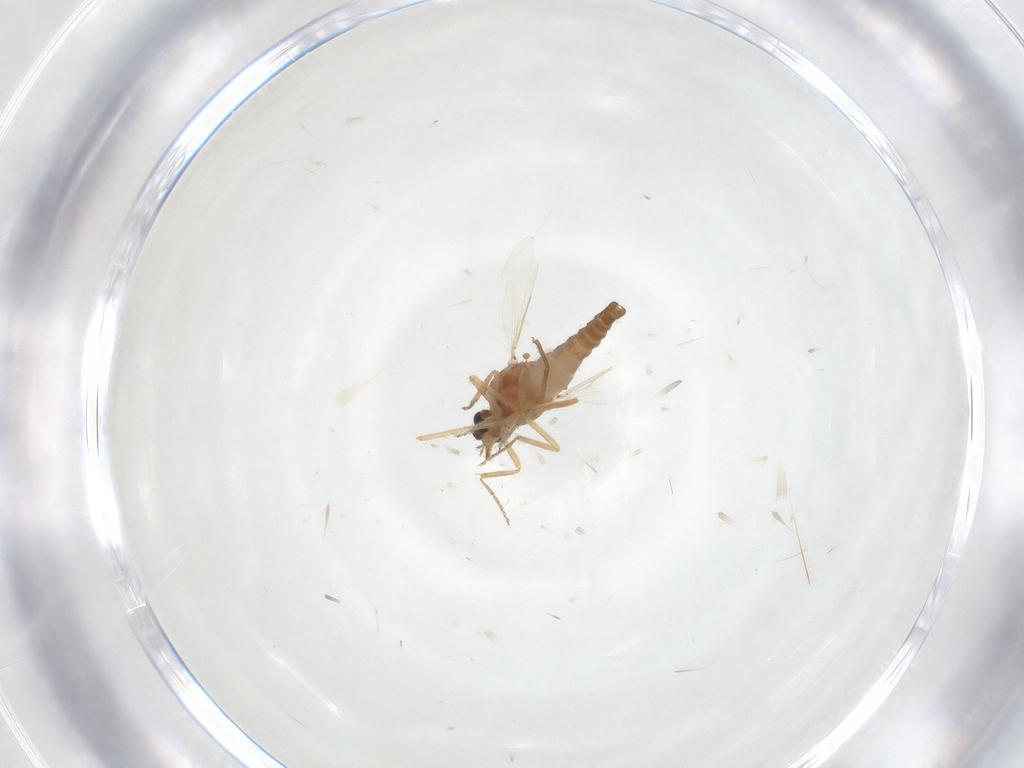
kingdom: Animalia
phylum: Arthropoda
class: Insecta
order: Diptera
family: Ceratopogonidae
